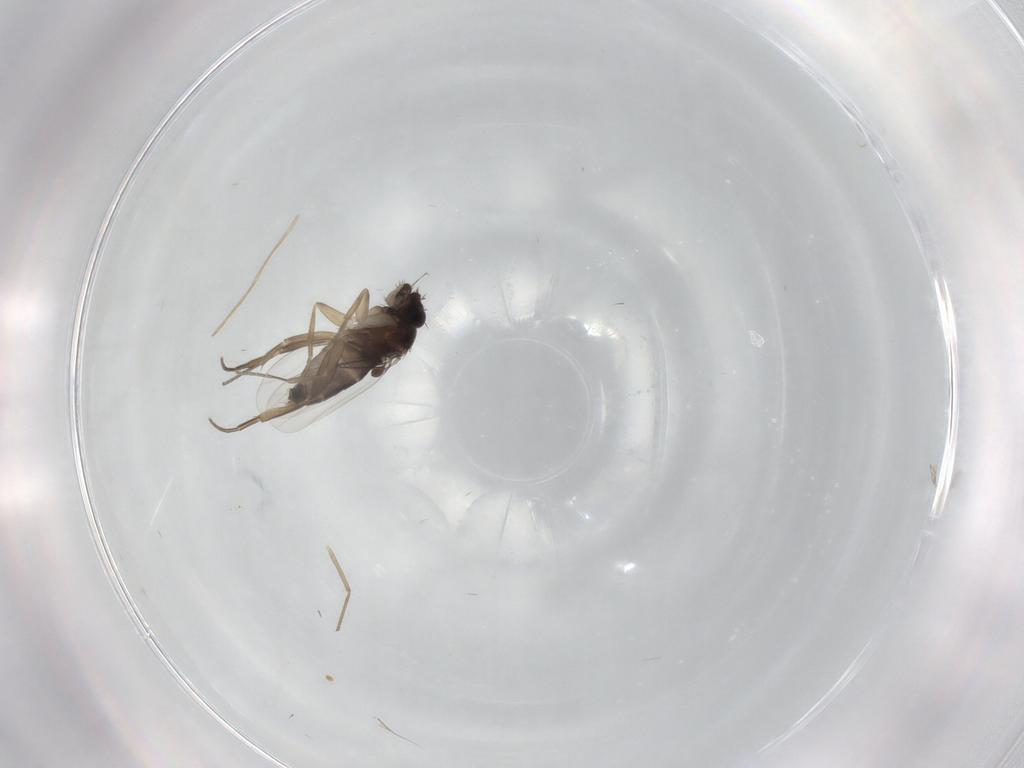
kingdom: Animalia
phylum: Arthropoda
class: Insecta
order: Diptera
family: Phoridae
